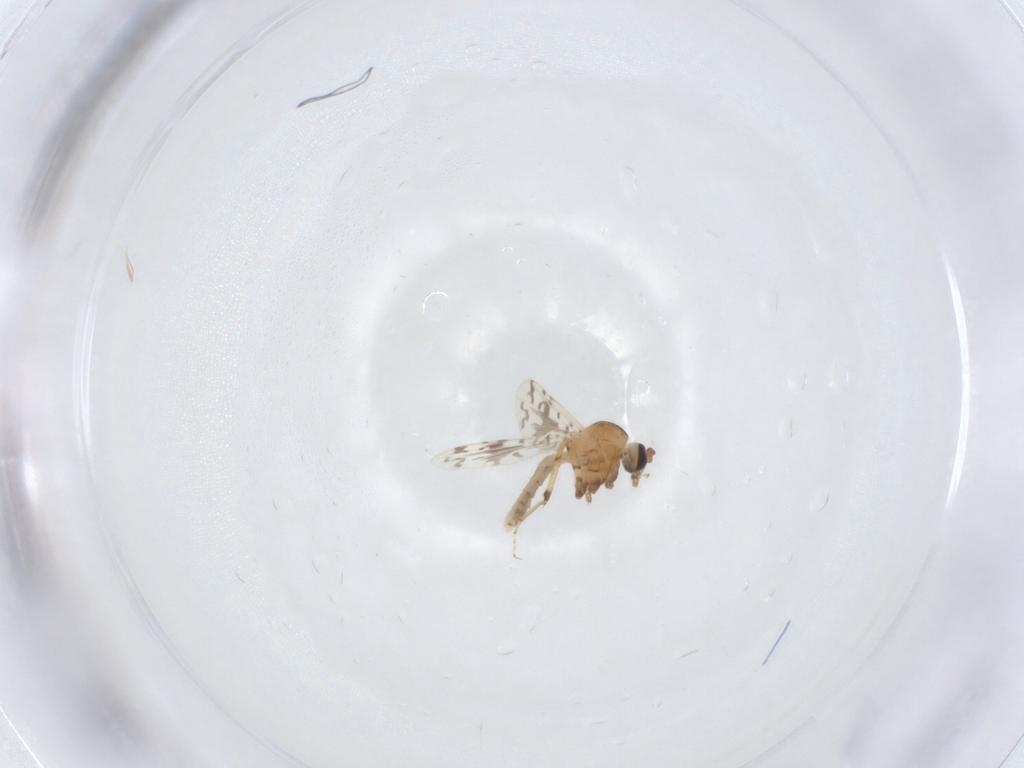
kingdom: Animalia
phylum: Arthropoda
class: Insecta
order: Diptera
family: Ceratopogonidae
